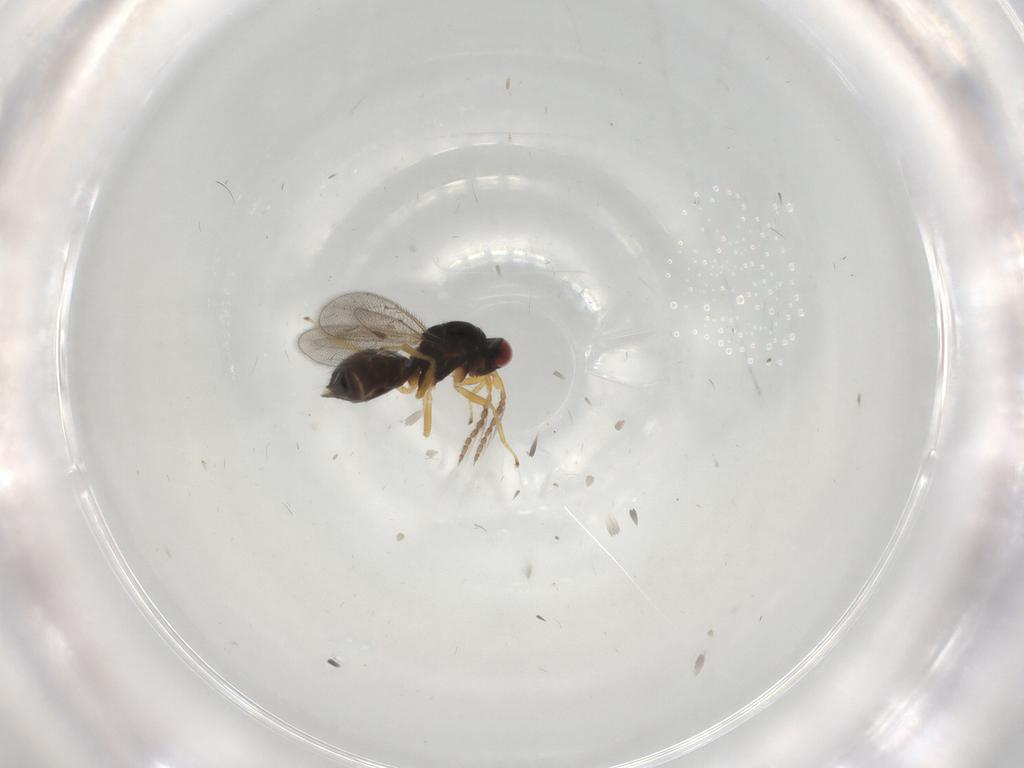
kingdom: Animalia
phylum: Arthropoda
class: Insecta
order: Hymenoptera
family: Eulophidae
